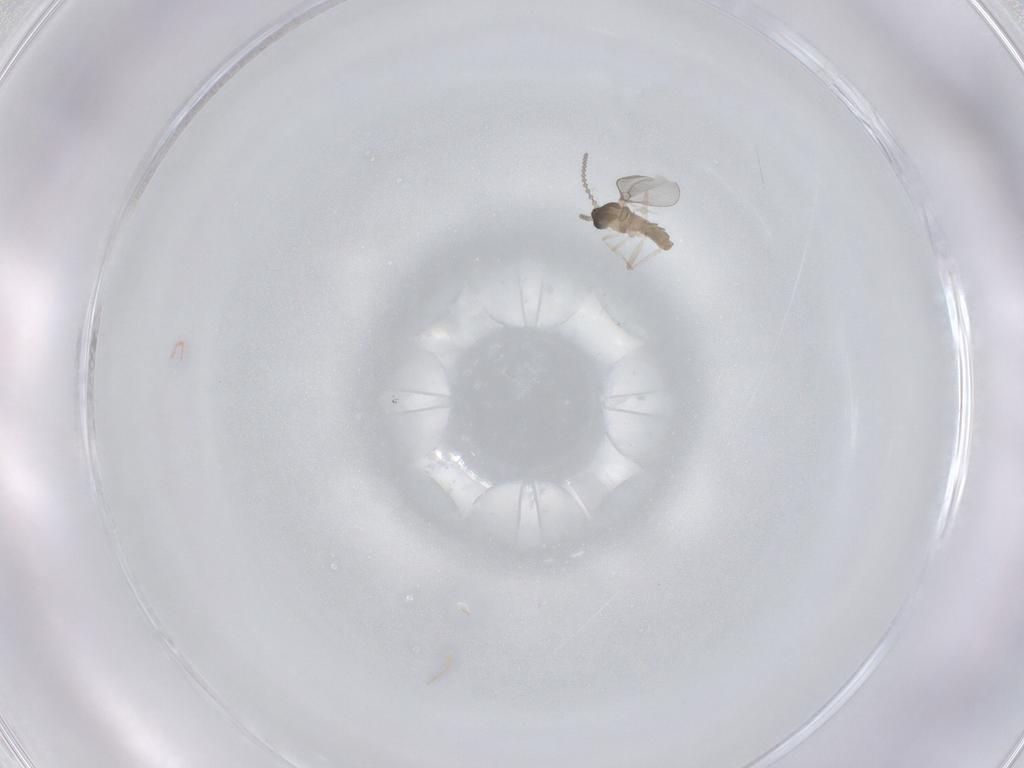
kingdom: Animalia
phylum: Arthropoda
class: Insecta
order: Diptera
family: Cecidomyiidae
